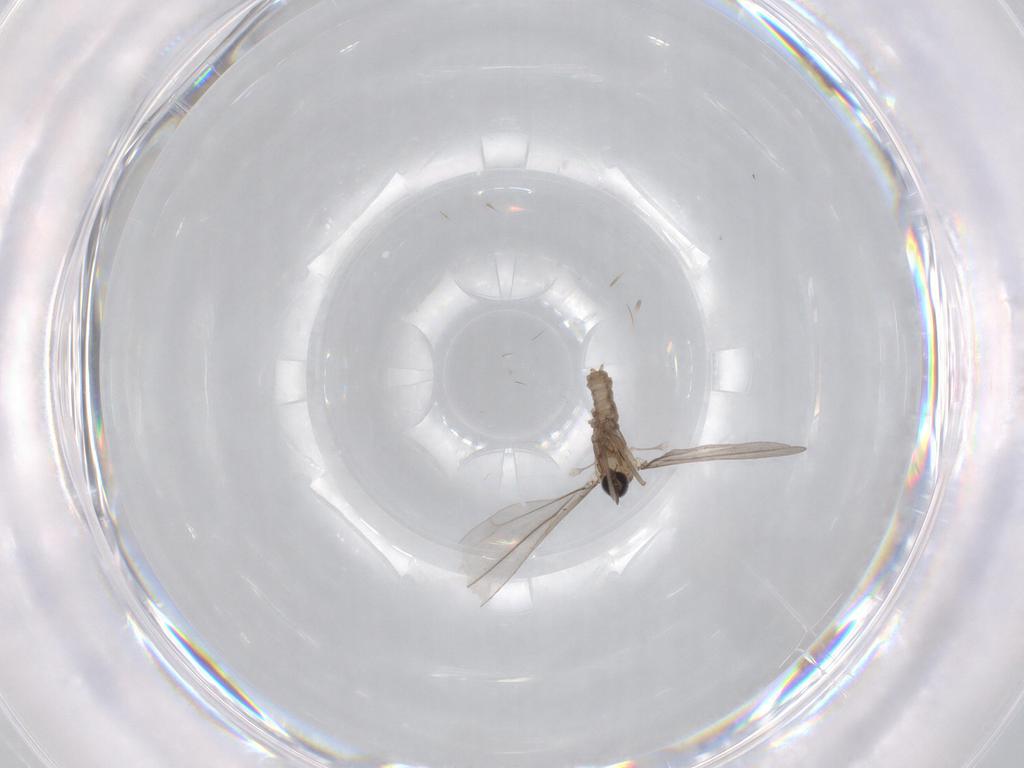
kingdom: Animalia
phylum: Arthropoda
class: Insecta
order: Diptera
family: Cecidomyiidae
